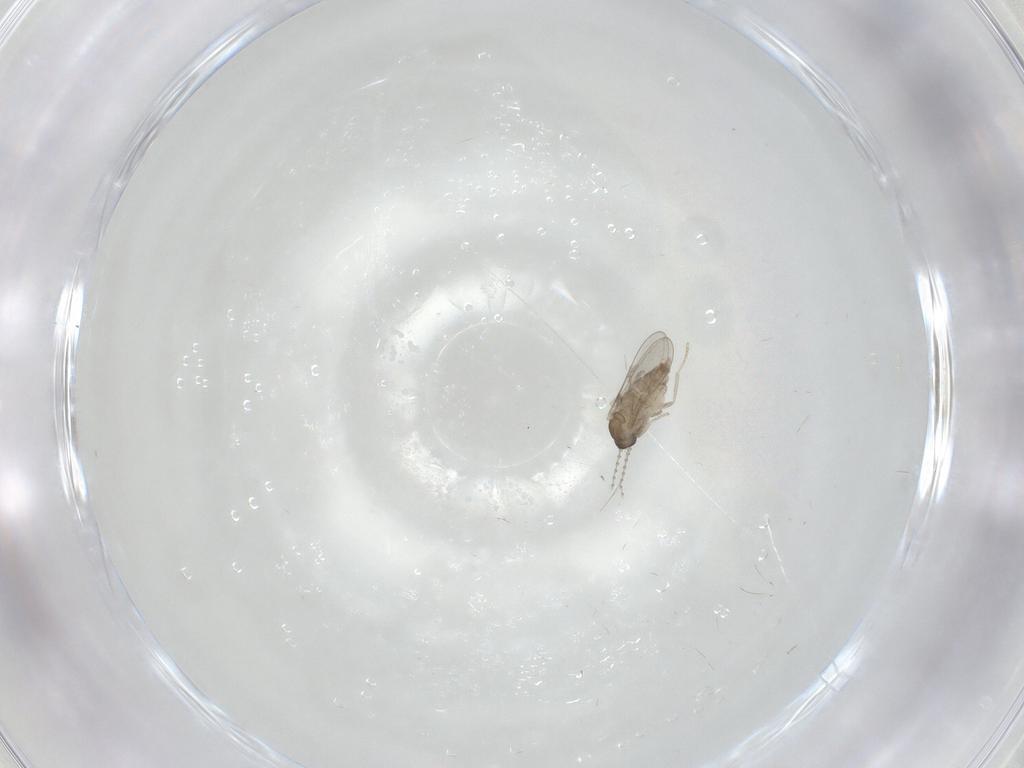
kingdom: Animalia
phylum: Arthropoda
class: Insecta
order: Diptera
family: Cecidomyiidae
